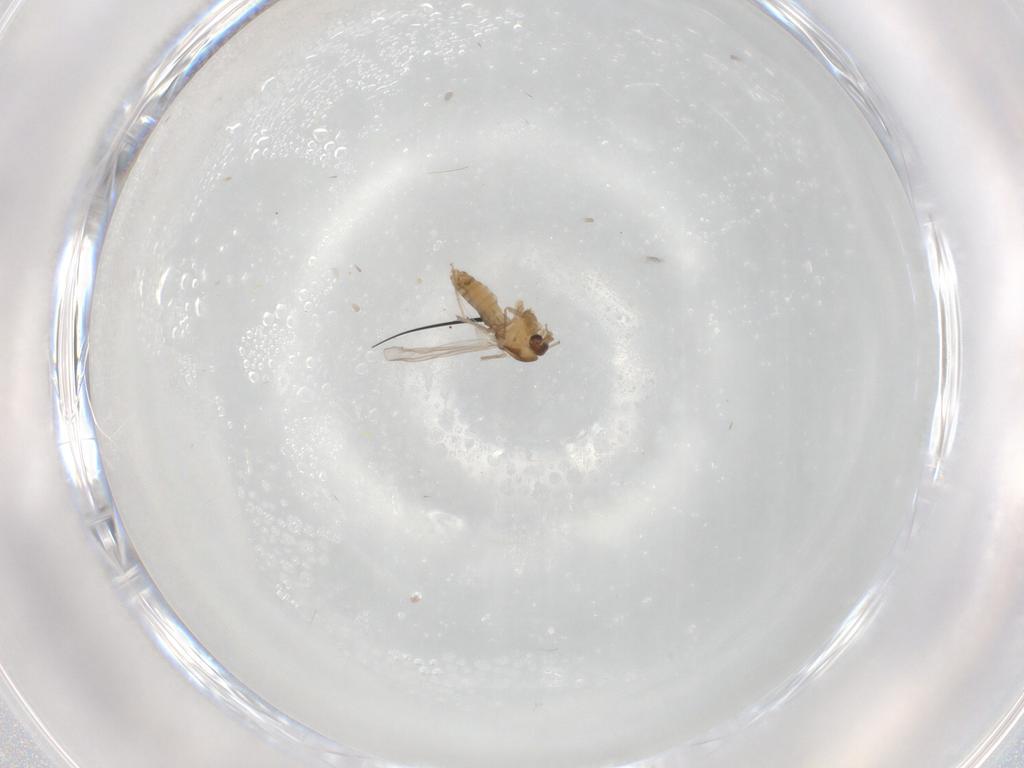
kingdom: Animalia
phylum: Arthropoda
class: Insecta
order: Diptera
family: Chironomidae
